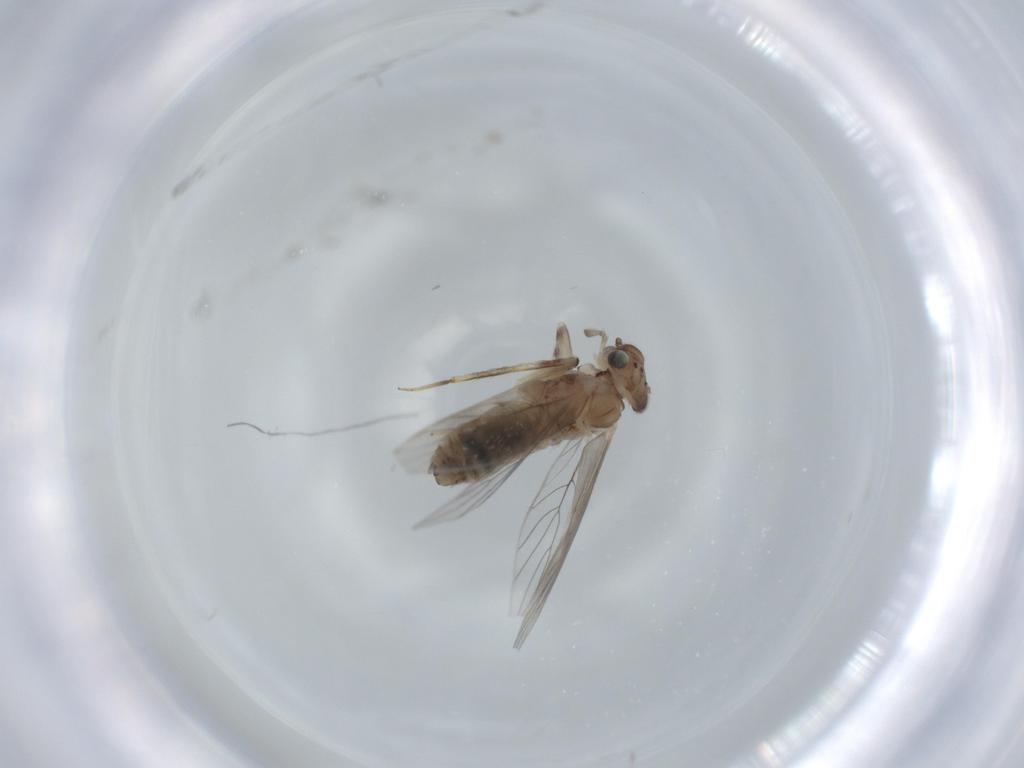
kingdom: Animalia
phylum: Arthropoda
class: Insecta
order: Psocodea
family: Lepidopsocidae
